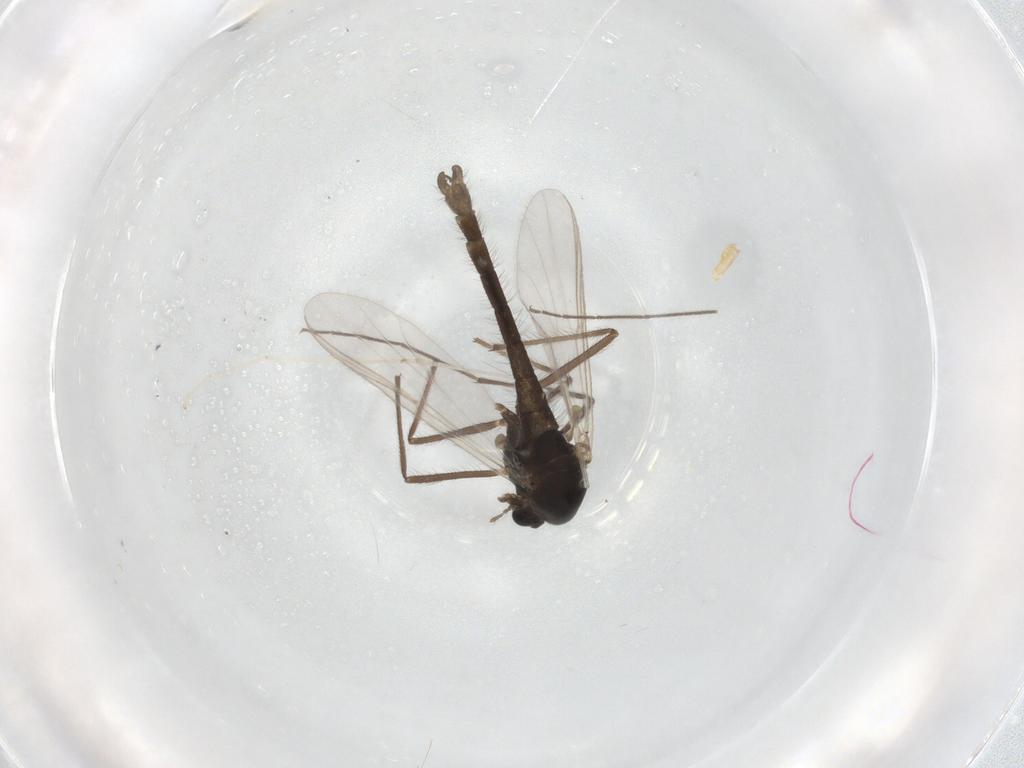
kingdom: Animalia
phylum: Arthropoda
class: Insecta
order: Diptera
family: Chironomidae
